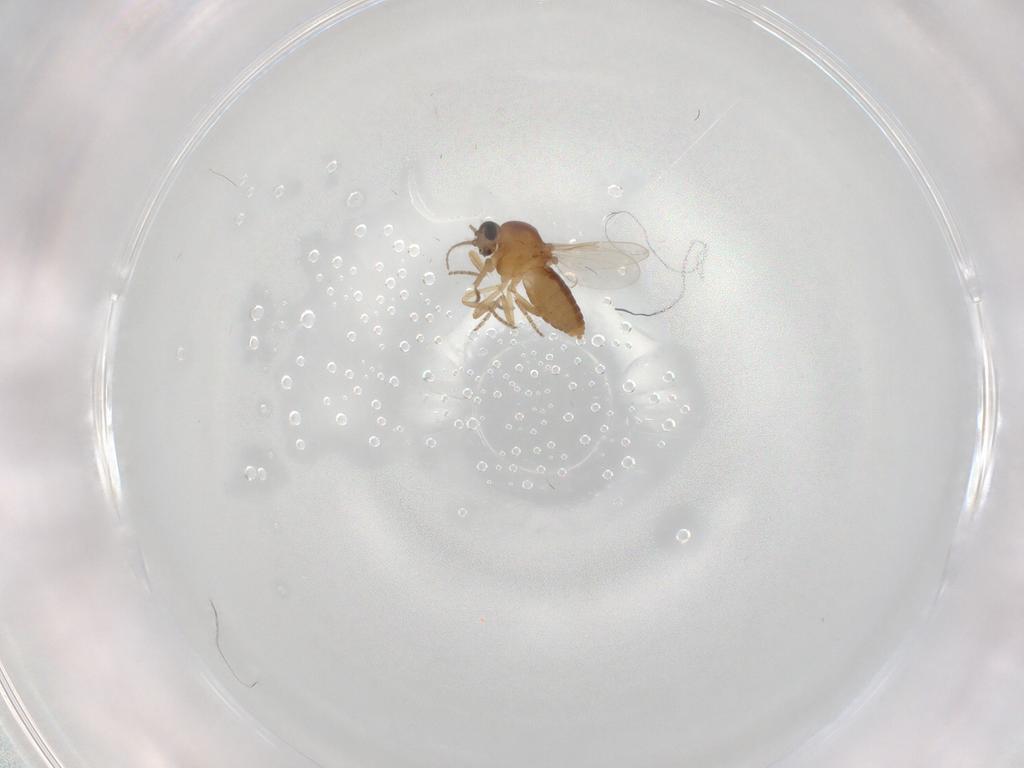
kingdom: Animalia
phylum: Arthropoda
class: Insecta
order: Diptera
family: Ceratopogonidae
